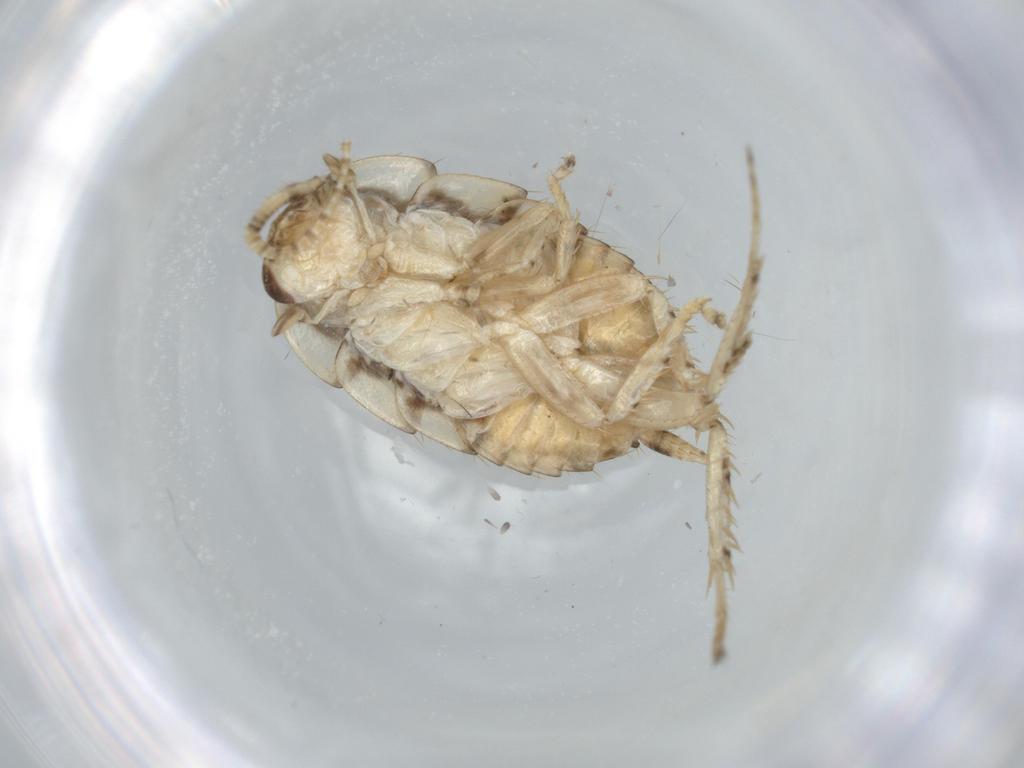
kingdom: Animalia
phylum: Arthropoda
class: Insecta
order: Blattodea
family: Ectobiidae
